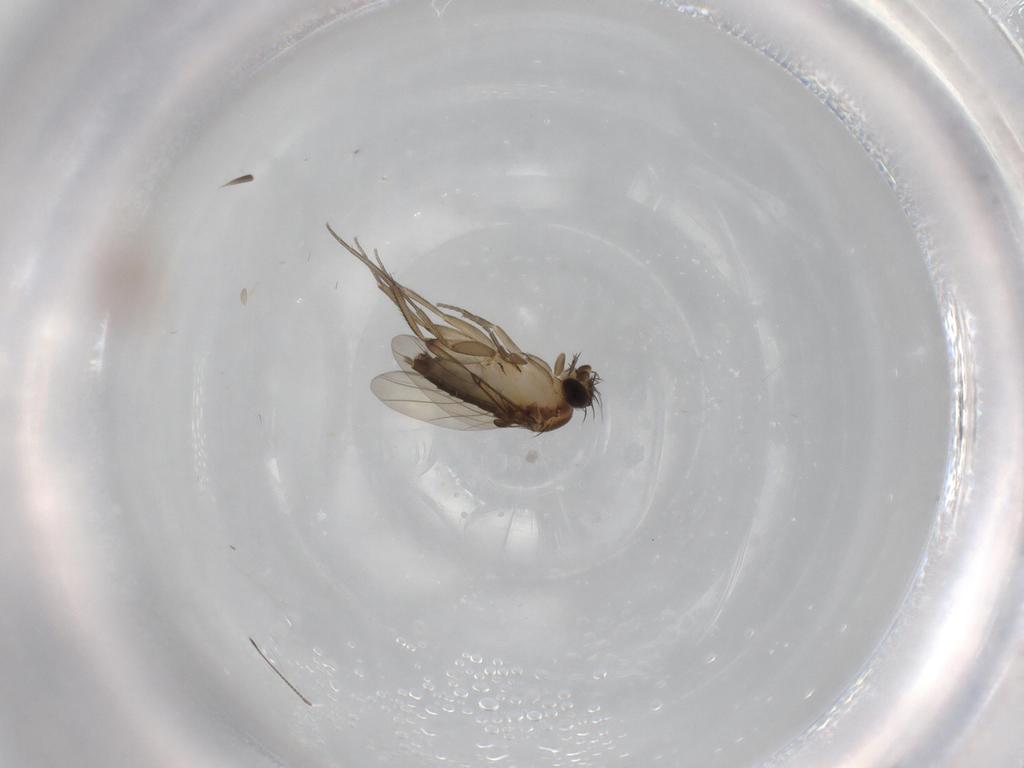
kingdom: Animalia
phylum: Arthropoda
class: Insecta
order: Diptera
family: Phoridae
